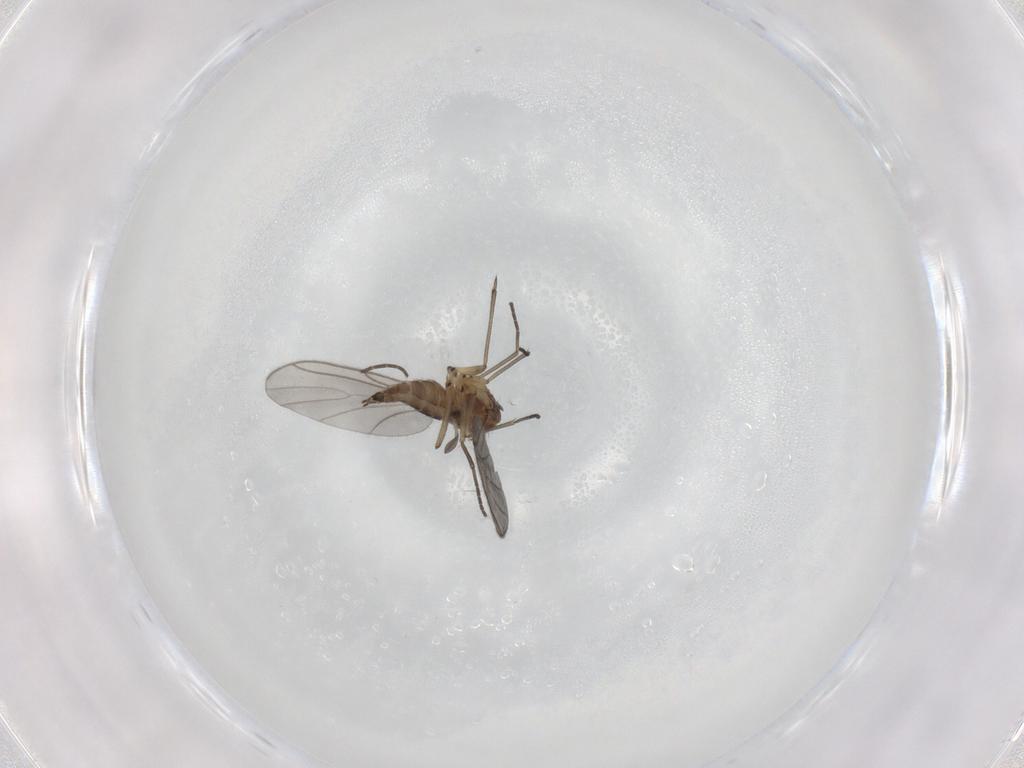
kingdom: Animalia
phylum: Arthropoda
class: Insecta
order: Diptera
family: Sciaridae
